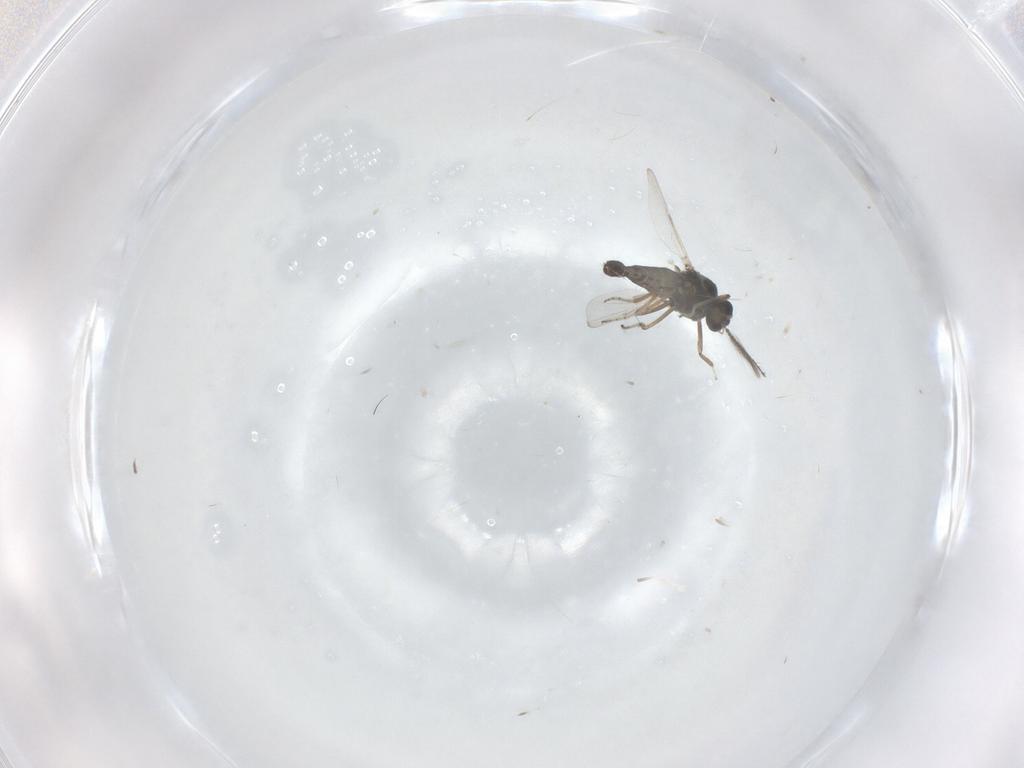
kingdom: Animalia
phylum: Arthropoda
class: Insecta
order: Diptera
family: Ceratopogonidae
